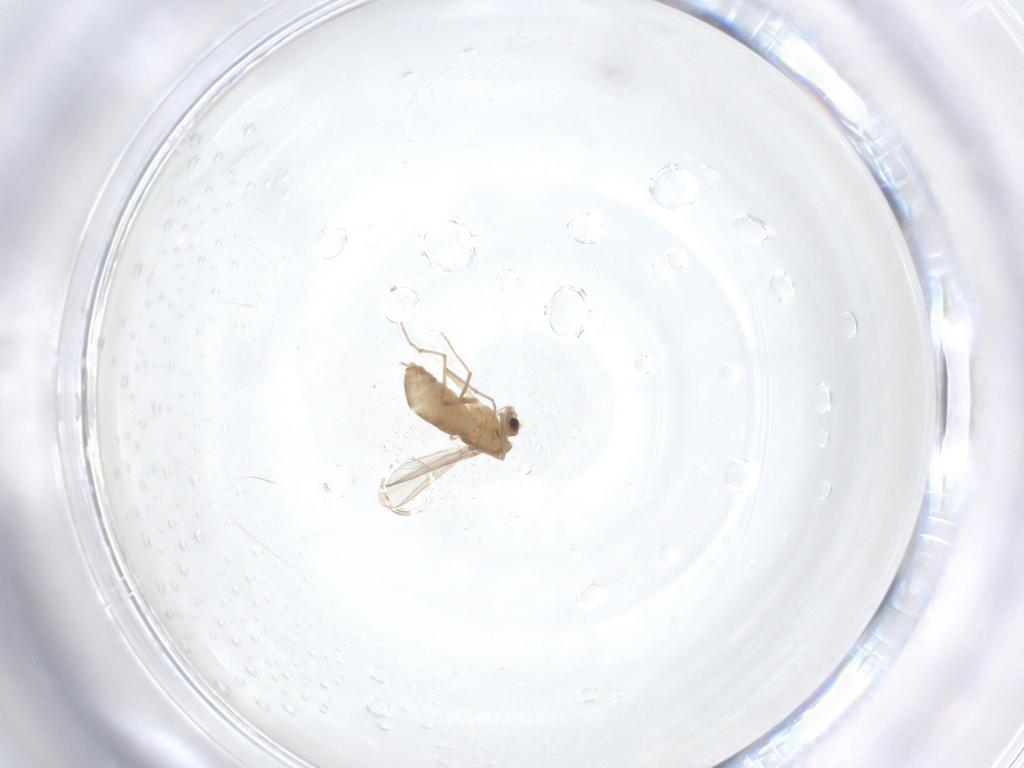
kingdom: Animalia
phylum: Arthropoda
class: Insecta
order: Diptera
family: Chironomidae
